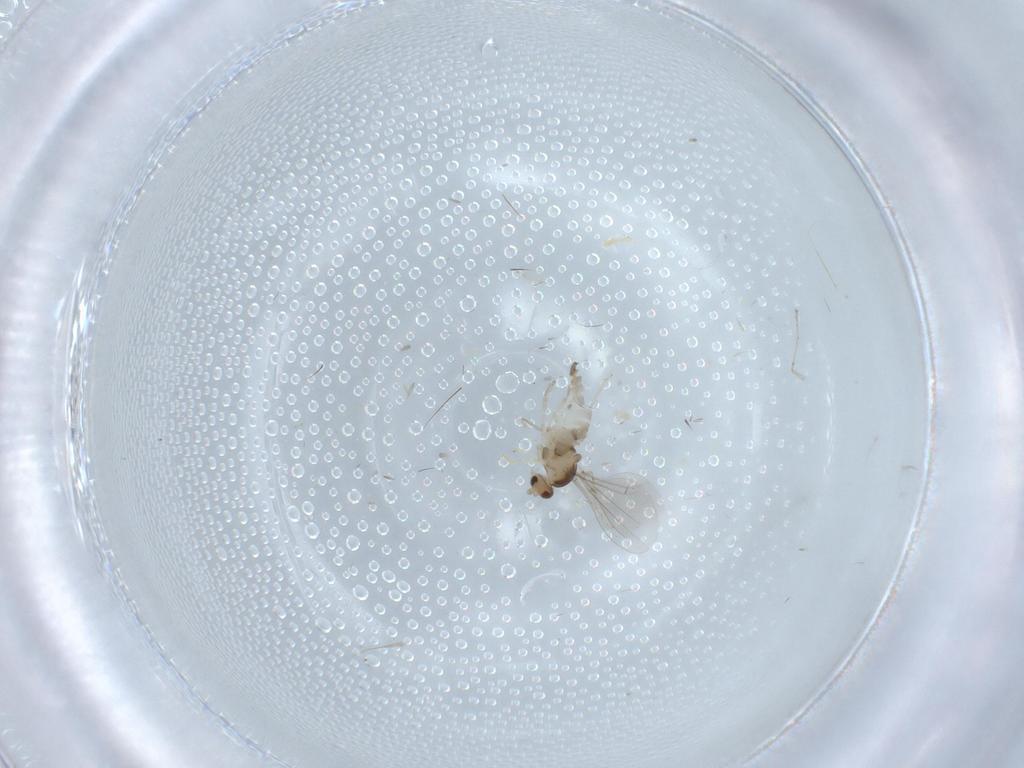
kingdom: Animalia
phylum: Arthropoda
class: Insecta
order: Diptera
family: Cecidomyiidae
